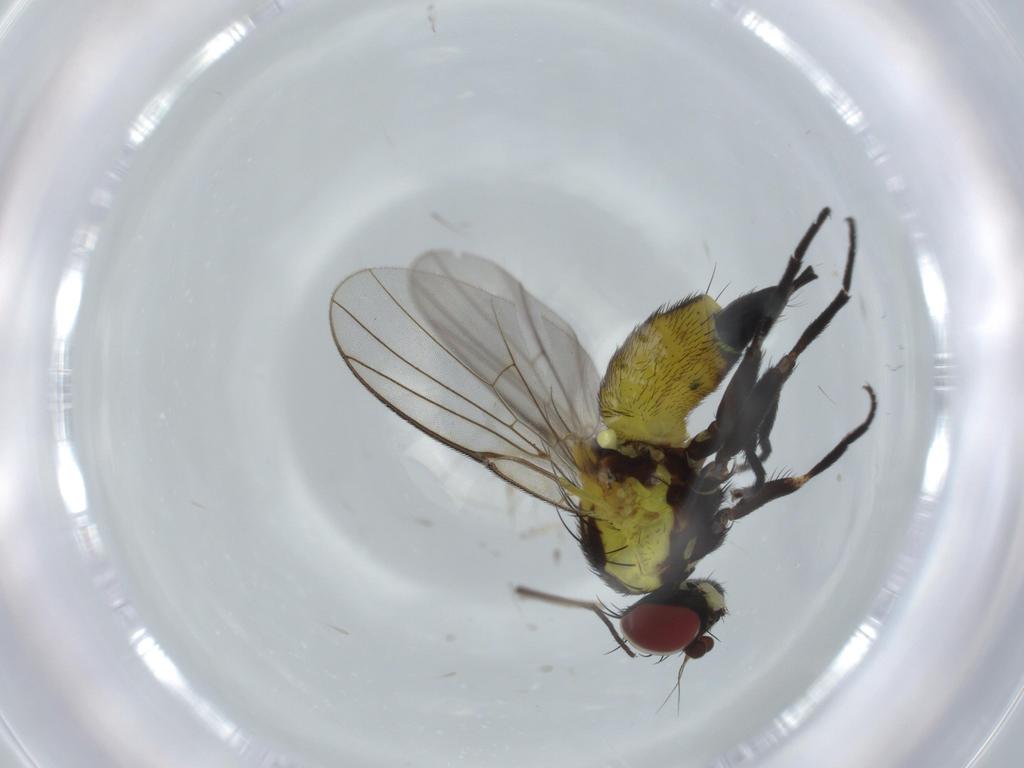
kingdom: Animalia
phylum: Arthropoda
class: Insecta
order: Diptera
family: Agromyzidae
